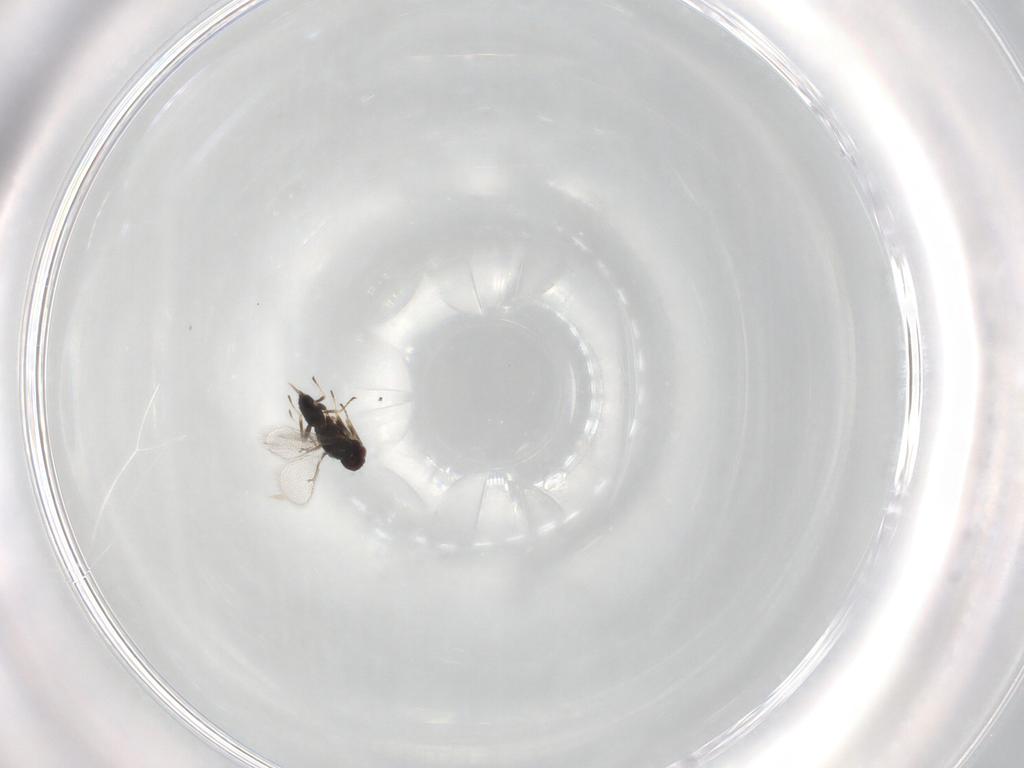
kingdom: Animalia
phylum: Arthropoda
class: Insecta
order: Hymenoptera
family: Eulophidae
